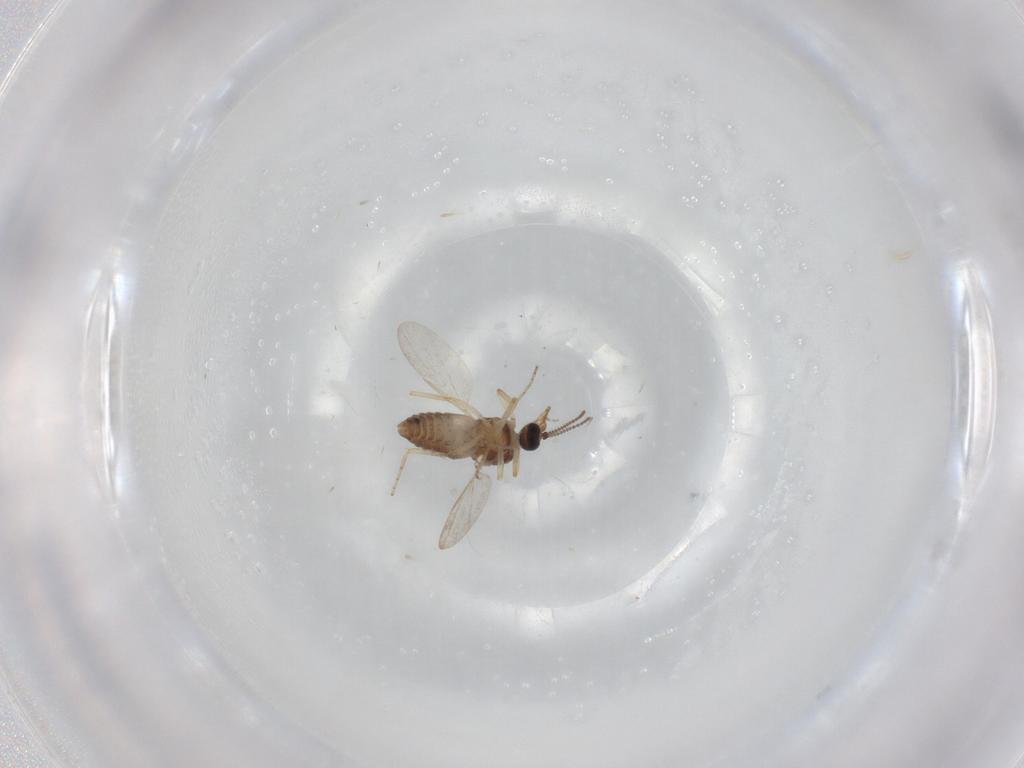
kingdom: Animalia
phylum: Arthropoda
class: Insecta
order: Diptera
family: Ceratopogonidae
